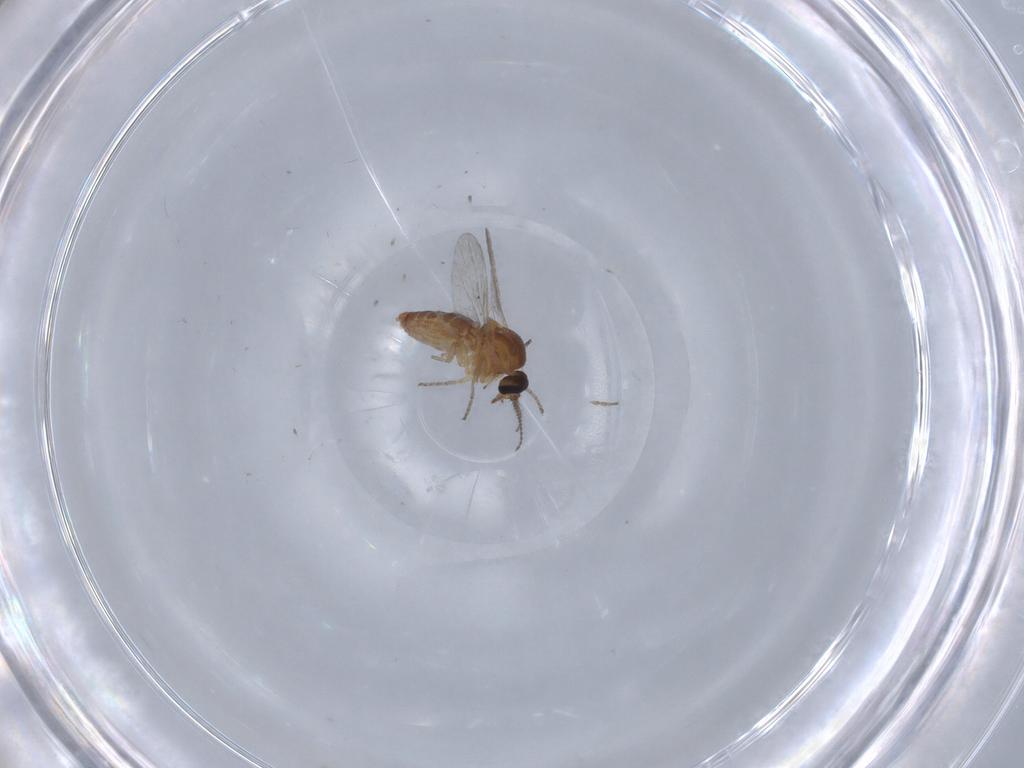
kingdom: Animalia
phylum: Arthropoda
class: Insecta
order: Diptera
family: Ceratopogonidae
